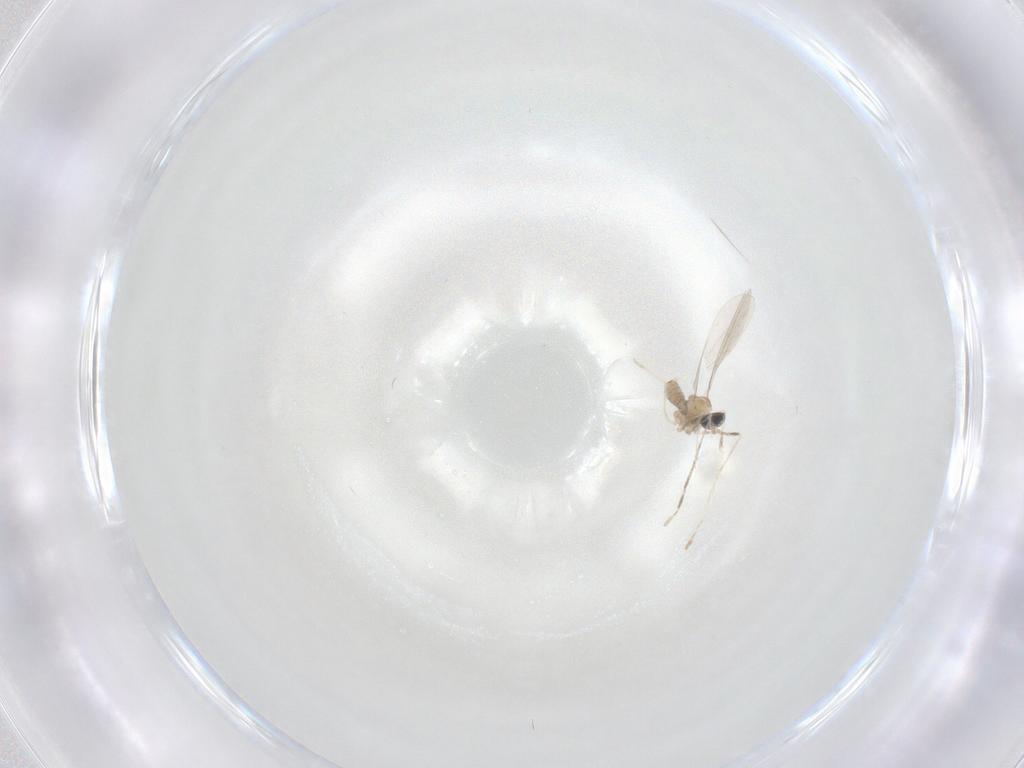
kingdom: Animalia
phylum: Arthropoda
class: Insecta
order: Diptera
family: Cecidomyiidae
